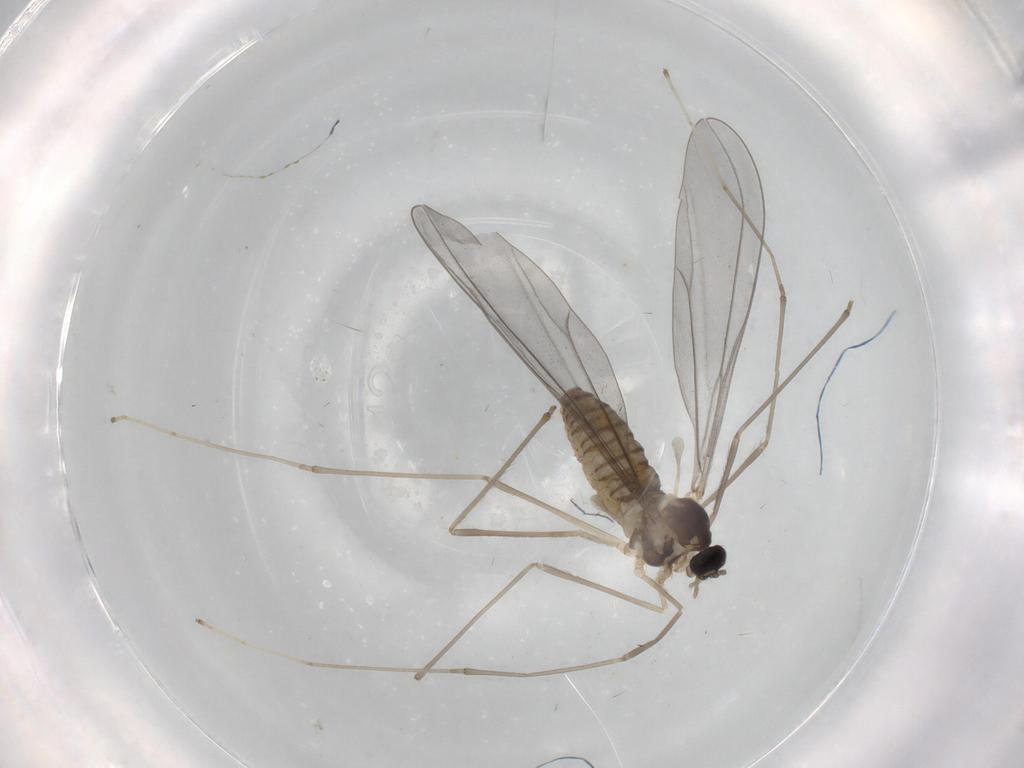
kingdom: Animalia
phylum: Arthropoda
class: Insecta
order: Diptera
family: Cecidomyiidae
